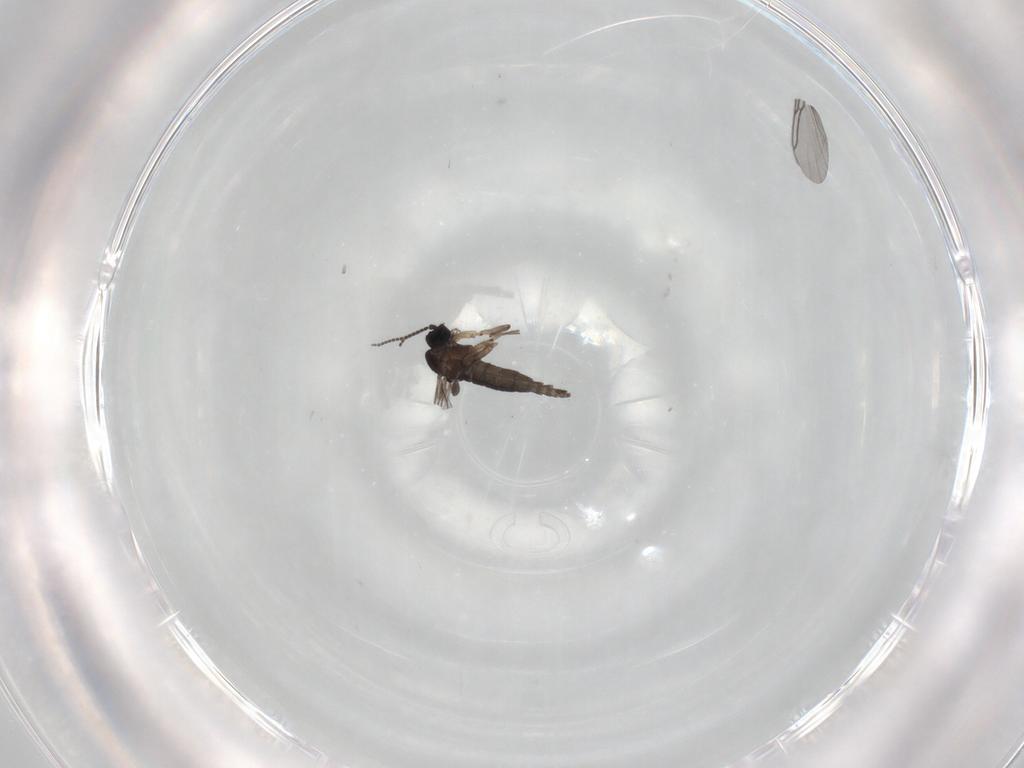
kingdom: Animalia
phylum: Arthropoda
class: Insecta
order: Diptera
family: Sciaridae
